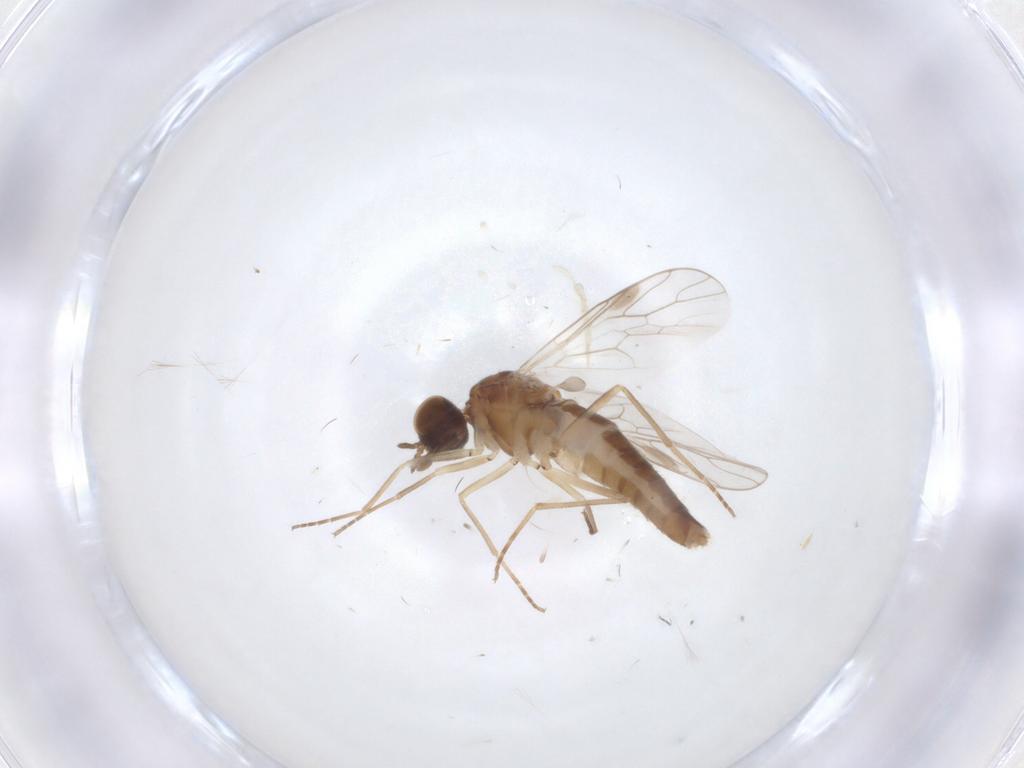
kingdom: Animalia
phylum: Arthropoda
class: Insecta
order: Diptera
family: Scenopinidae
